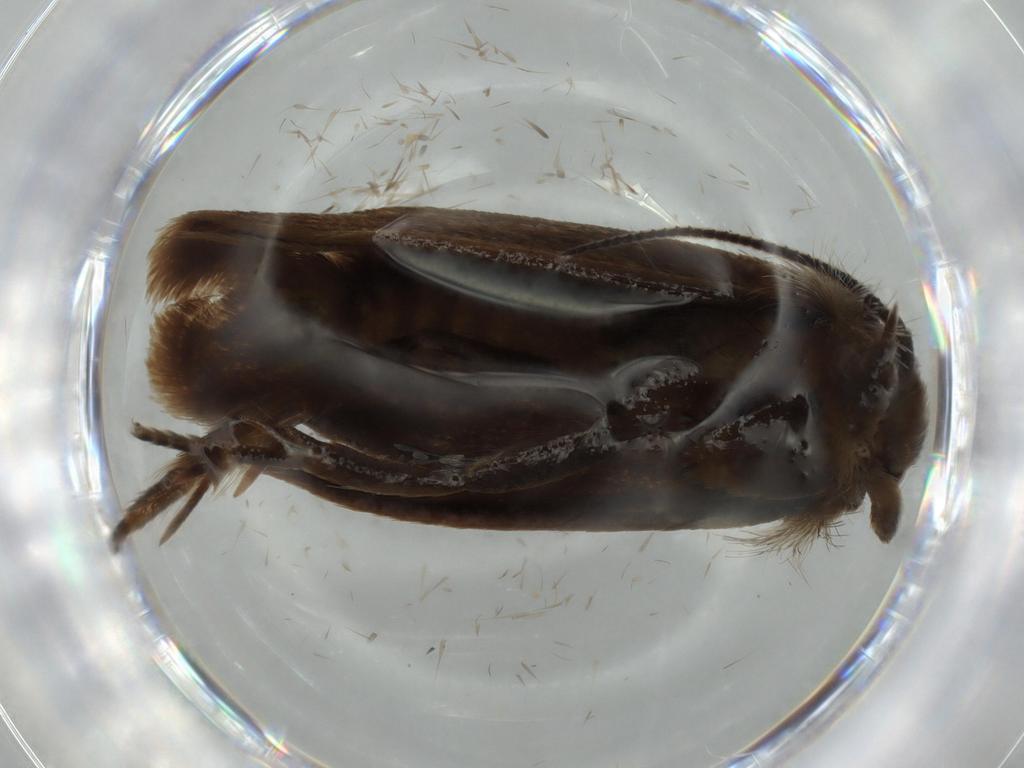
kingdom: Animalia
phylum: Arthropoda
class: Insecta
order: Lepidoptera
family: Tineidae
